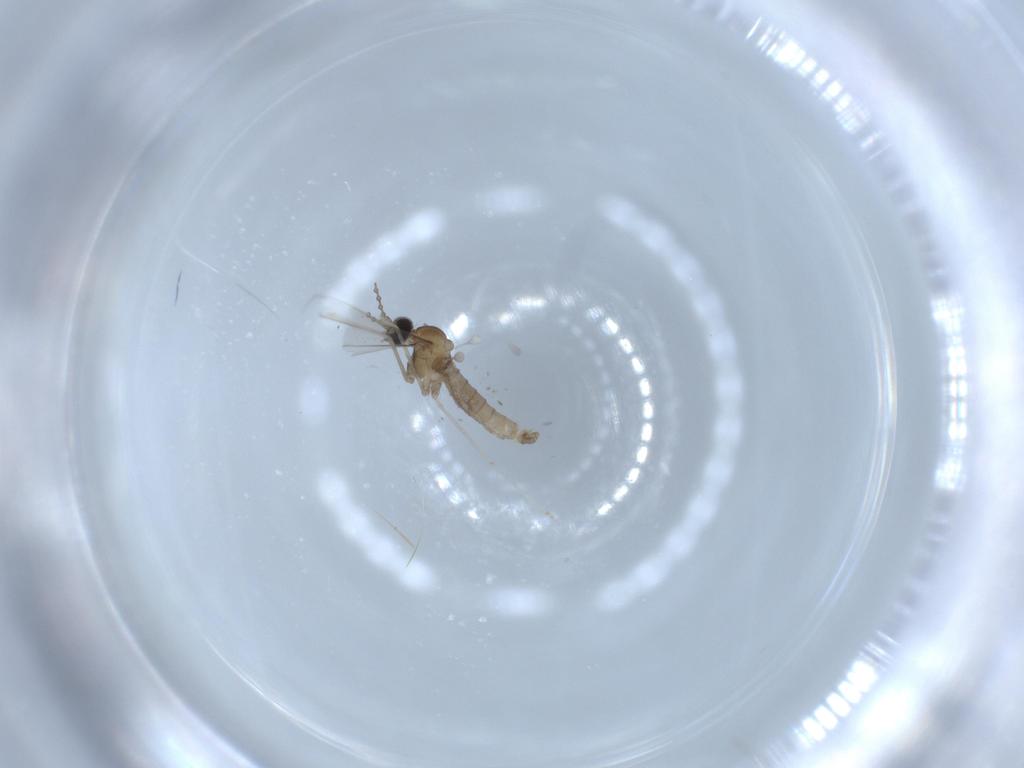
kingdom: Animalia
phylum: Arthropoda
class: Insecta
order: Diptera
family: Cecidomyiidae
